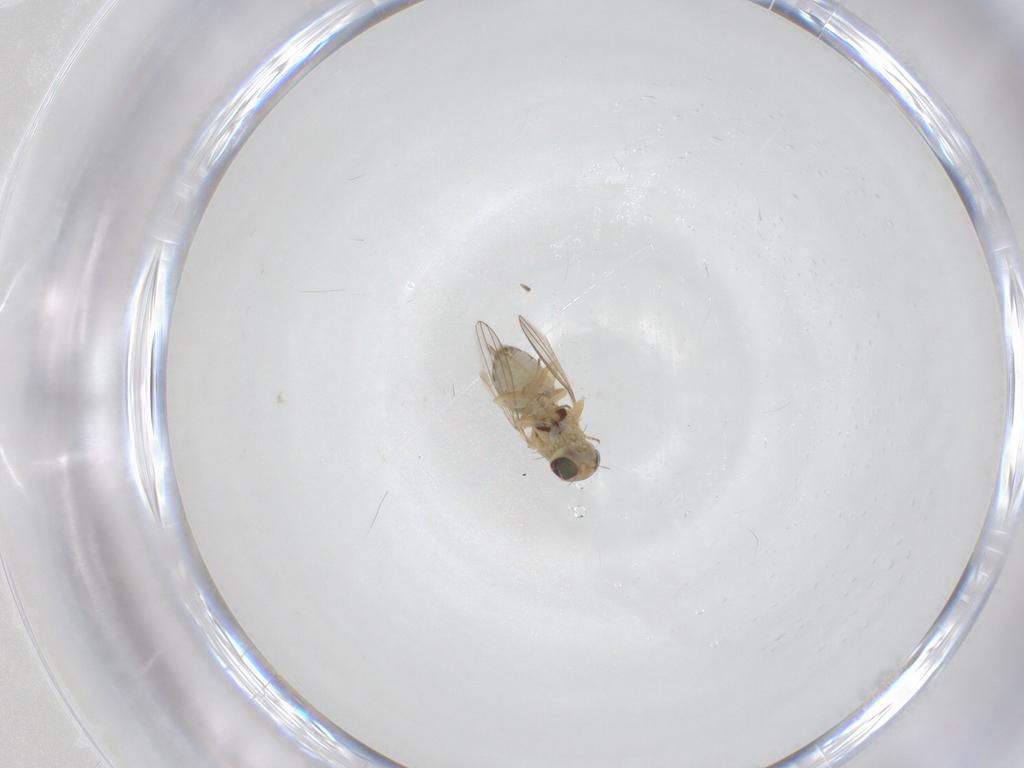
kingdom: Animalia
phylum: Arthropoda
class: Insecta
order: Diptera
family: Chyromyidae
